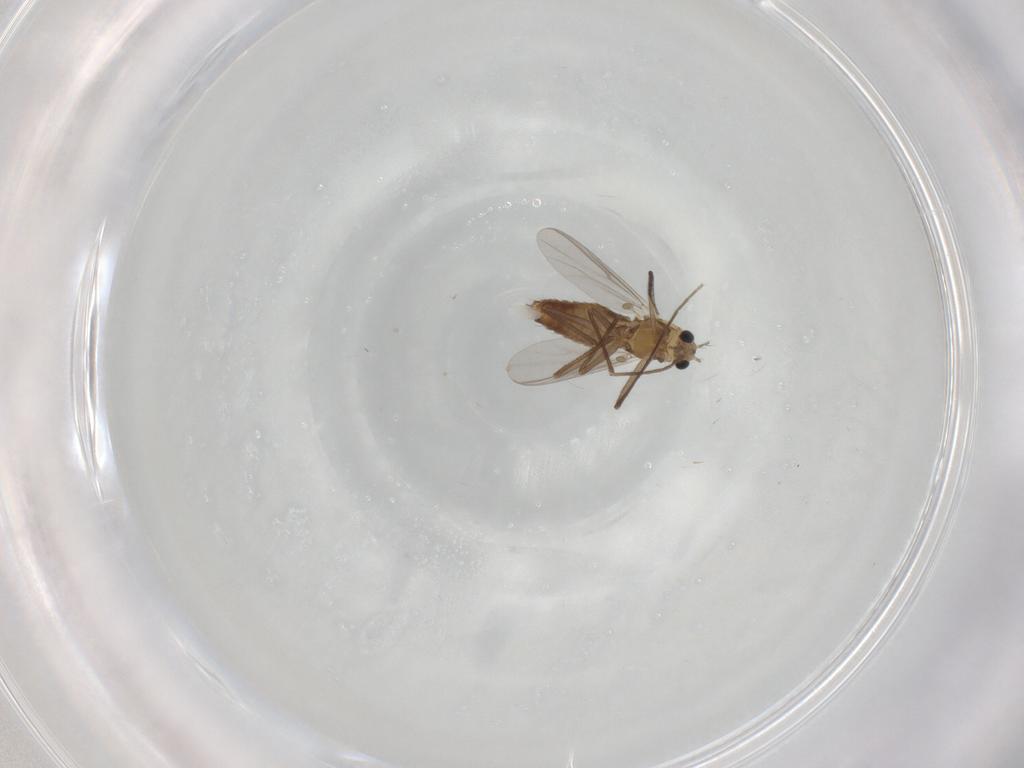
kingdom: Animalia
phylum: Arthropoda
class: Insecta
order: Diptera
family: Chironomidae
